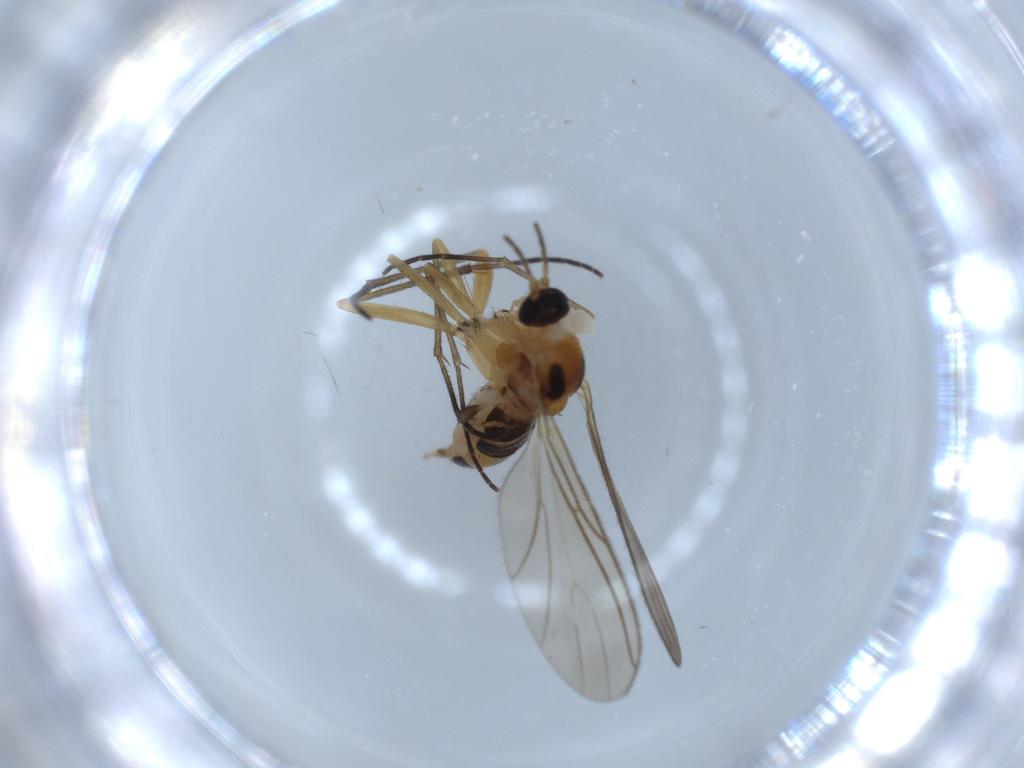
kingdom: Animalia
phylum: Arthropoda
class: Insecta
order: Diptera
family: Sciaridae
